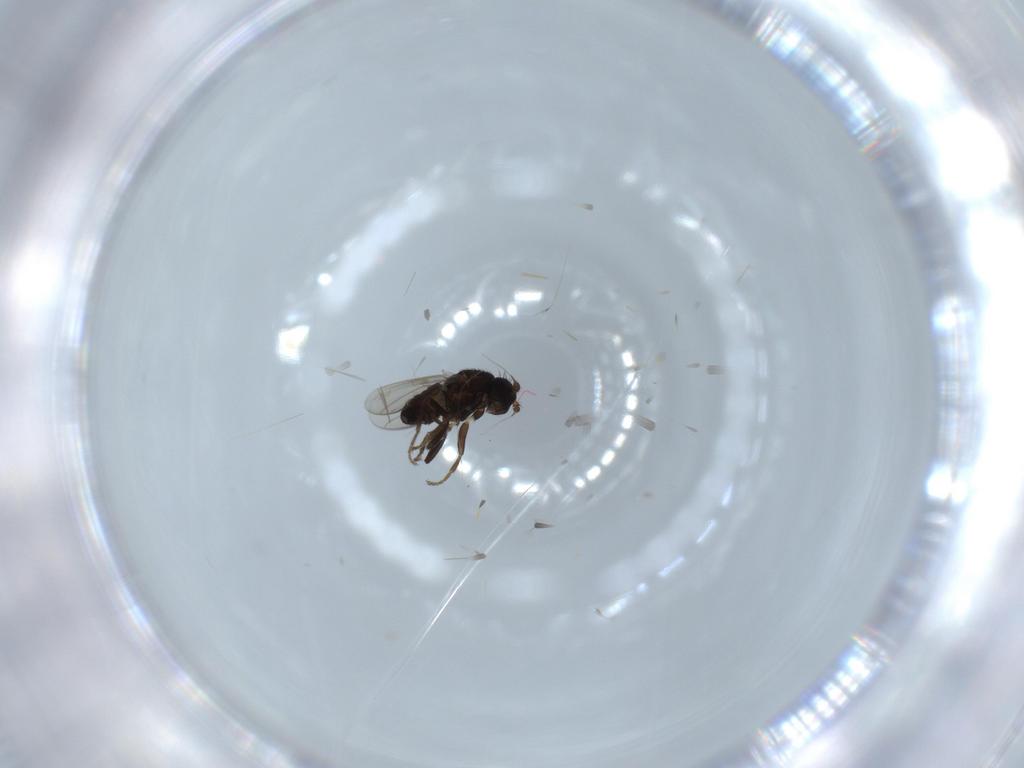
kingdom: Animalia
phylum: Arthropoda
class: Insecta
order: Diptera
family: Sphaeroceridae
